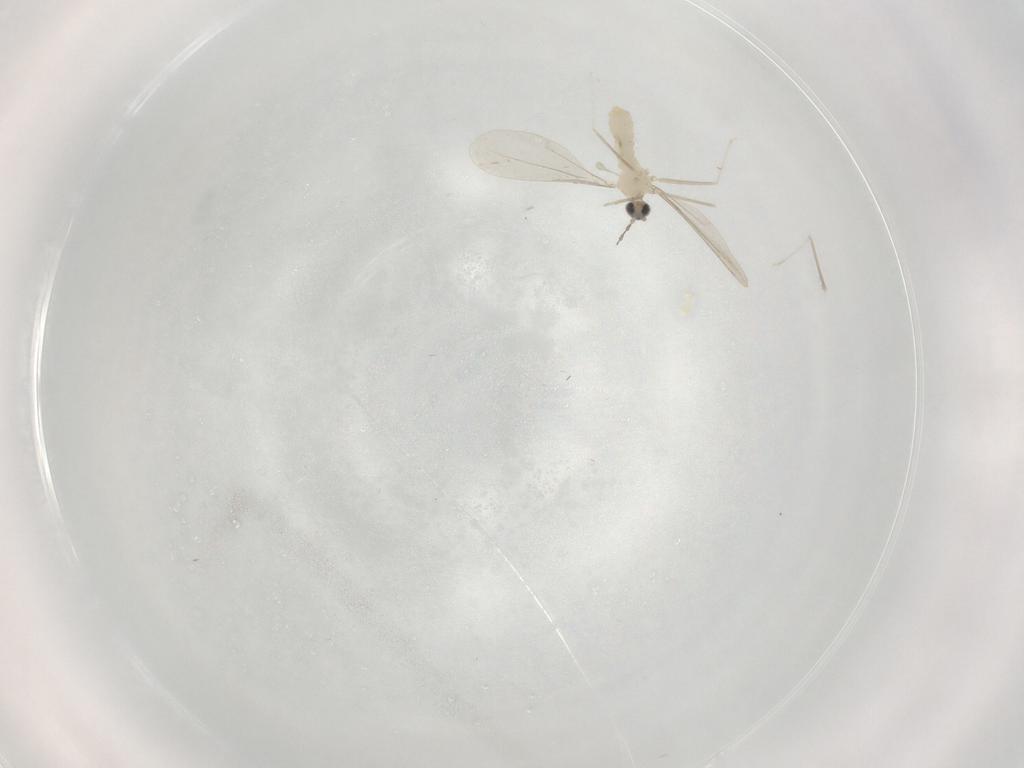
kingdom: Animalia
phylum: Arthropoda
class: Insecta
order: Diptera
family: Cecidomyiidae
